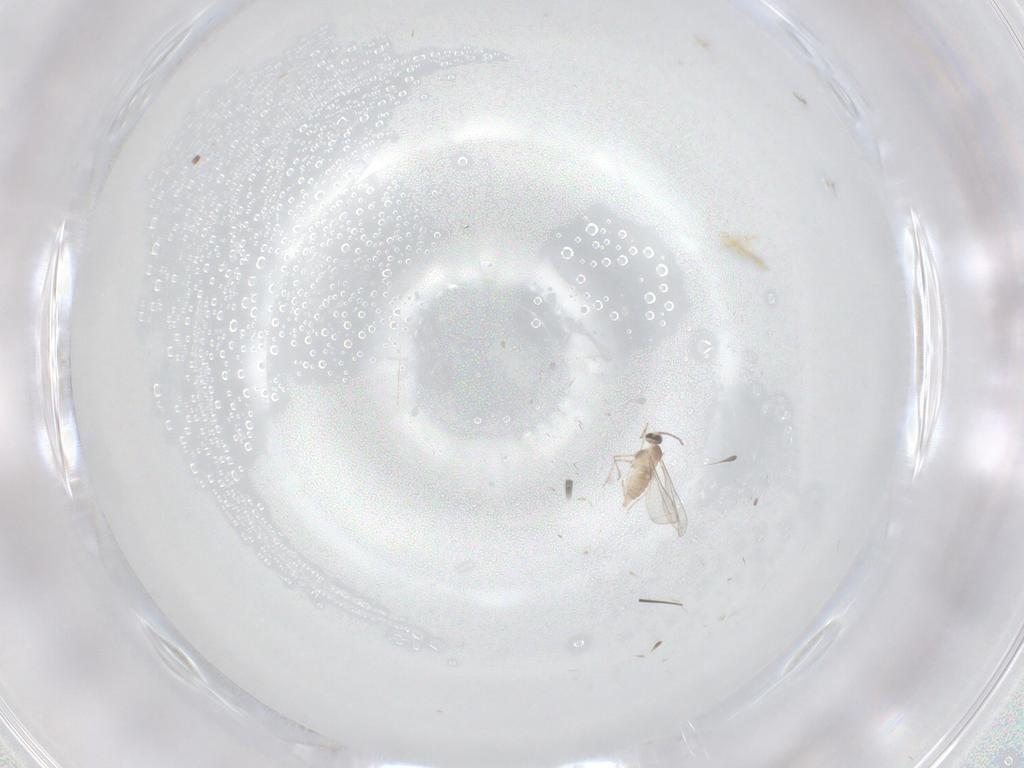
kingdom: Animalia
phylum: Arthropoda
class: Insecta
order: Diptera
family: Cecidomyiidae
